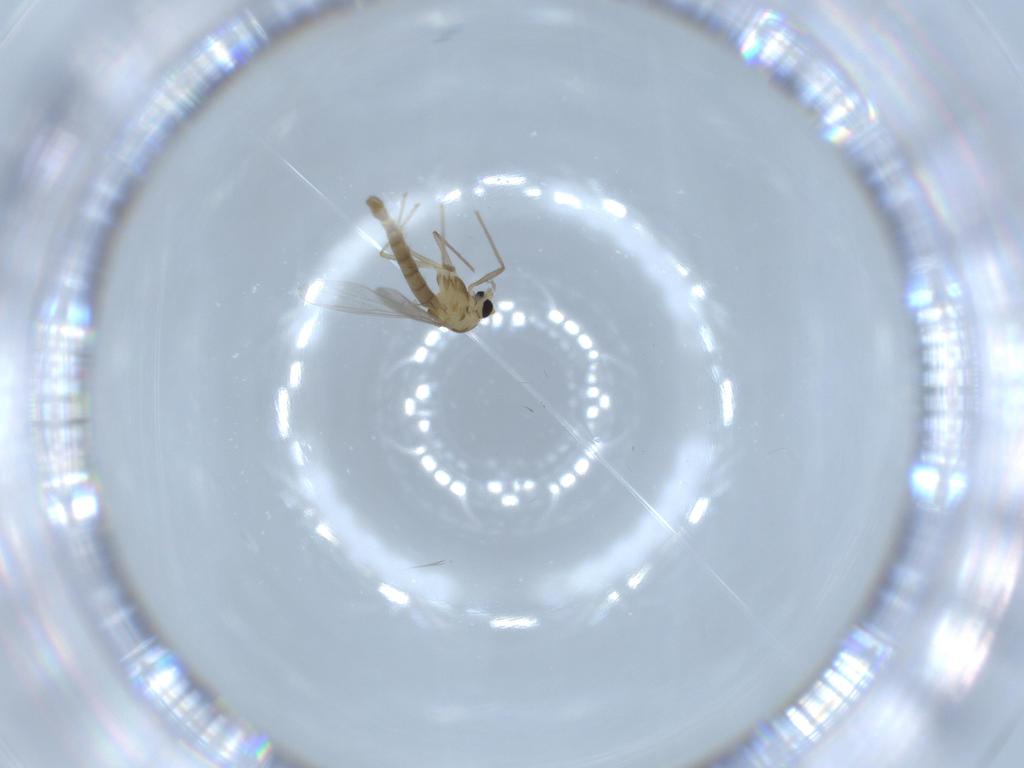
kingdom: Animalia
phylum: Arthropoda
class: Insecta
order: Diptera
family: Chironomidae
